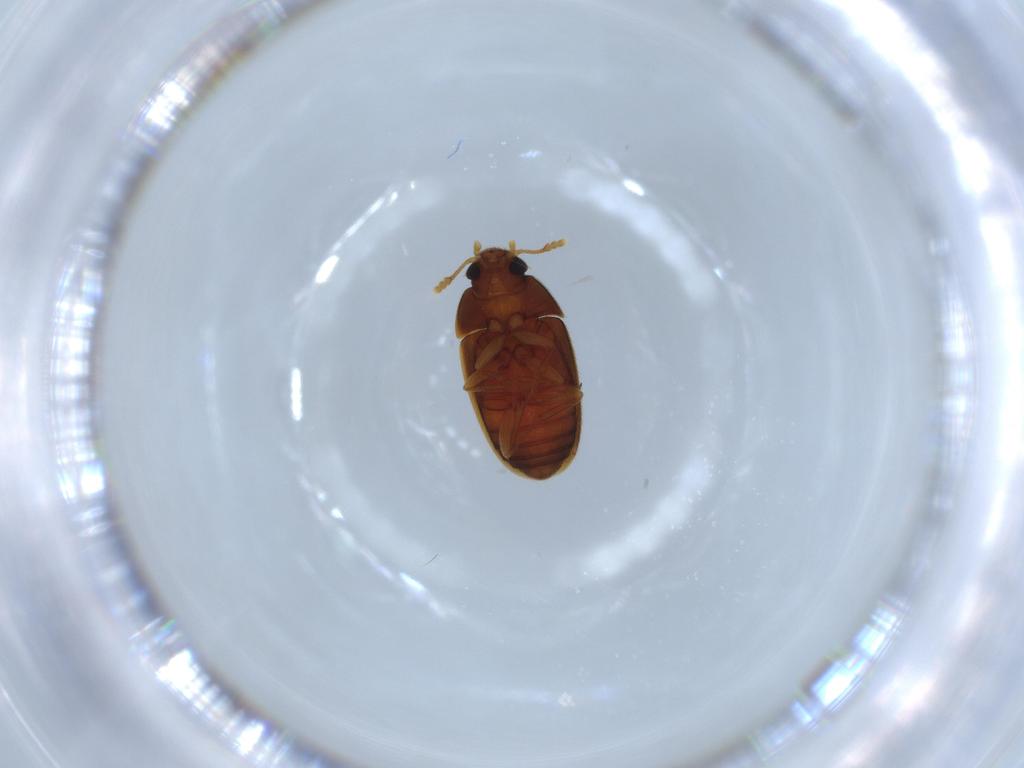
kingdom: Animalia
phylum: Arthropoda
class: Insecta
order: Coleoptera
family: Mycetophagidae
